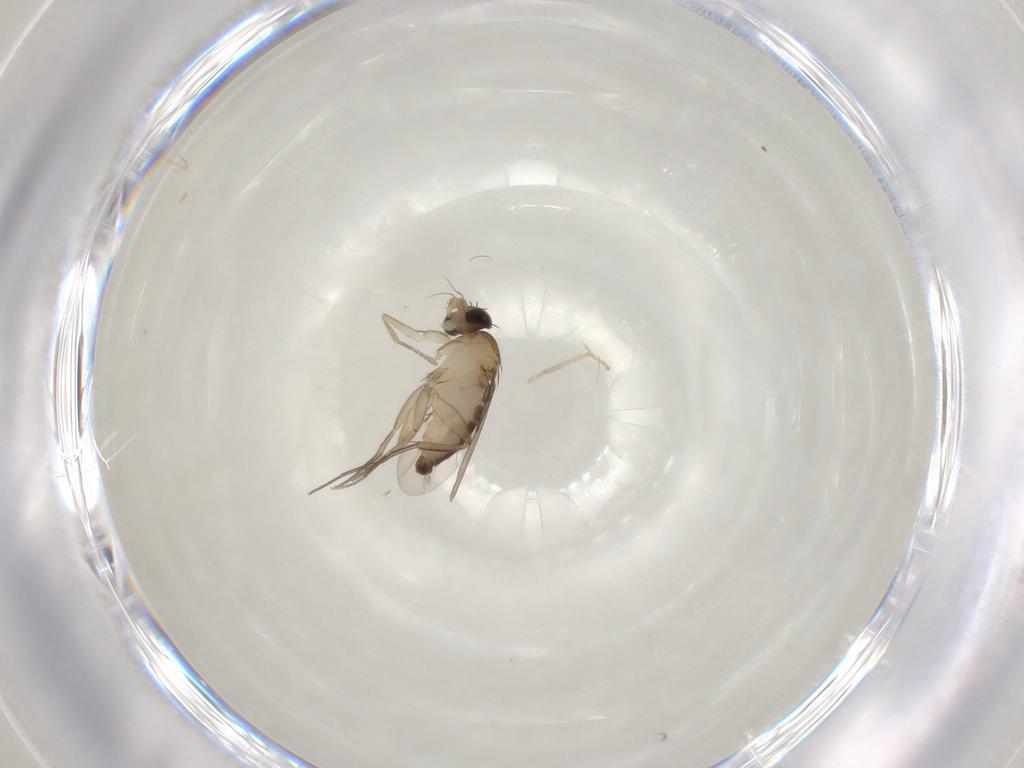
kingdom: Animalia
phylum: Arthropoda
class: Insecta
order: Diptera
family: Phoridae
